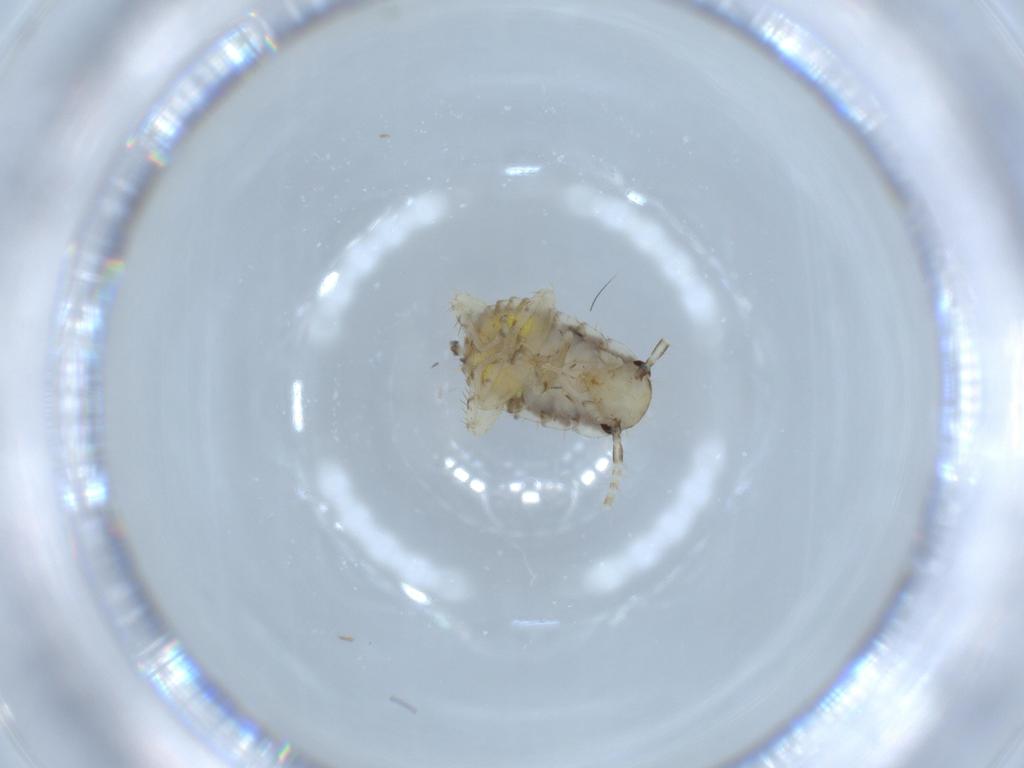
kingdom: Animalia
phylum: Arthropoda
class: Insecta
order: Blattodea
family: Ectobiidae
